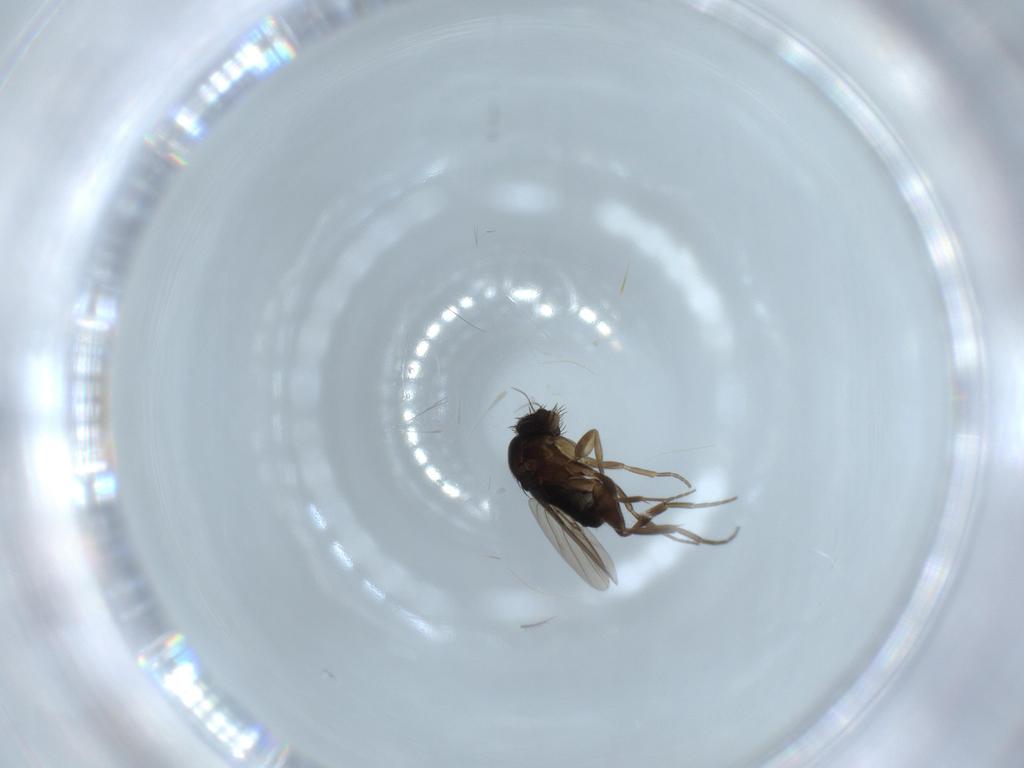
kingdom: Animalia
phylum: Arthropoda
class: Insecta
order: Diptera
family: Phoridae
